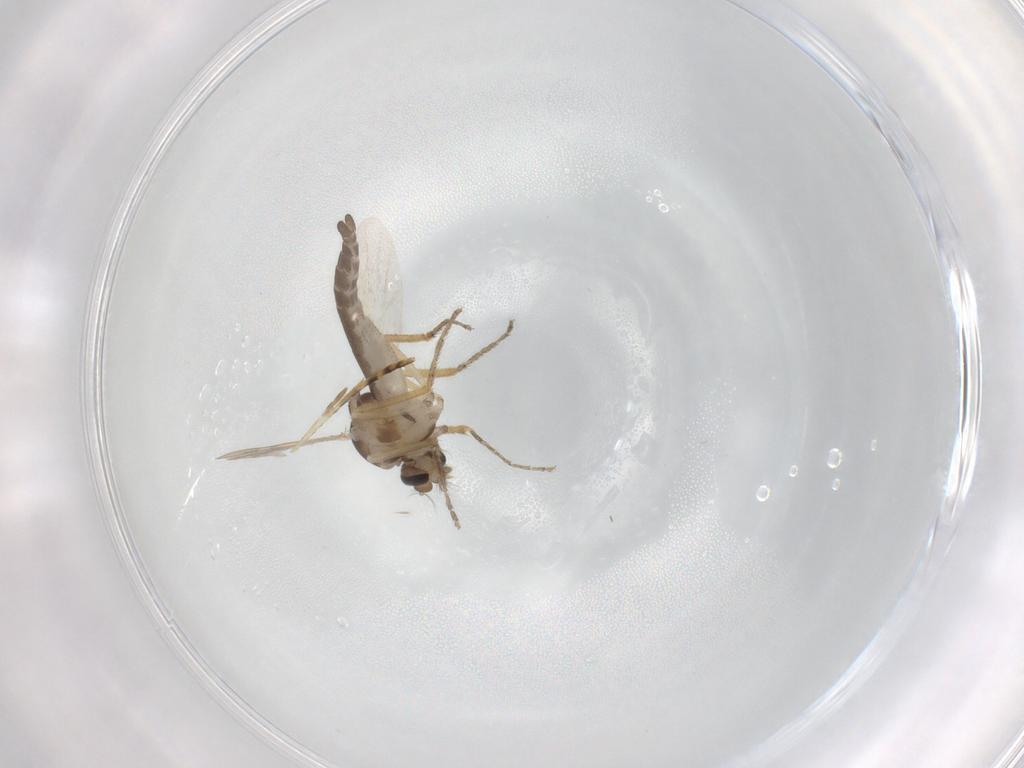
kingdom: Animalia
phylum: Arthropoda
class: Insecta
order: Diptera
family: Ceratopogonidae
